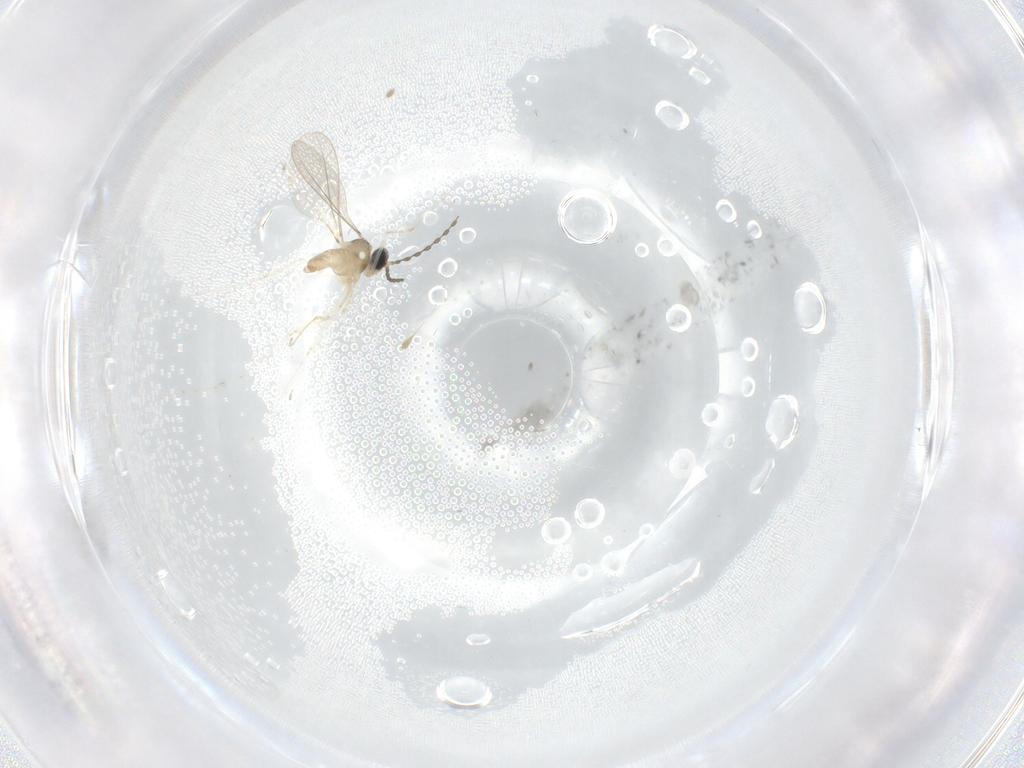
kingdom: Animalia
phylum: Arthropoda
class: Insecta
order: Diptera
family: Cecidomyiidae
